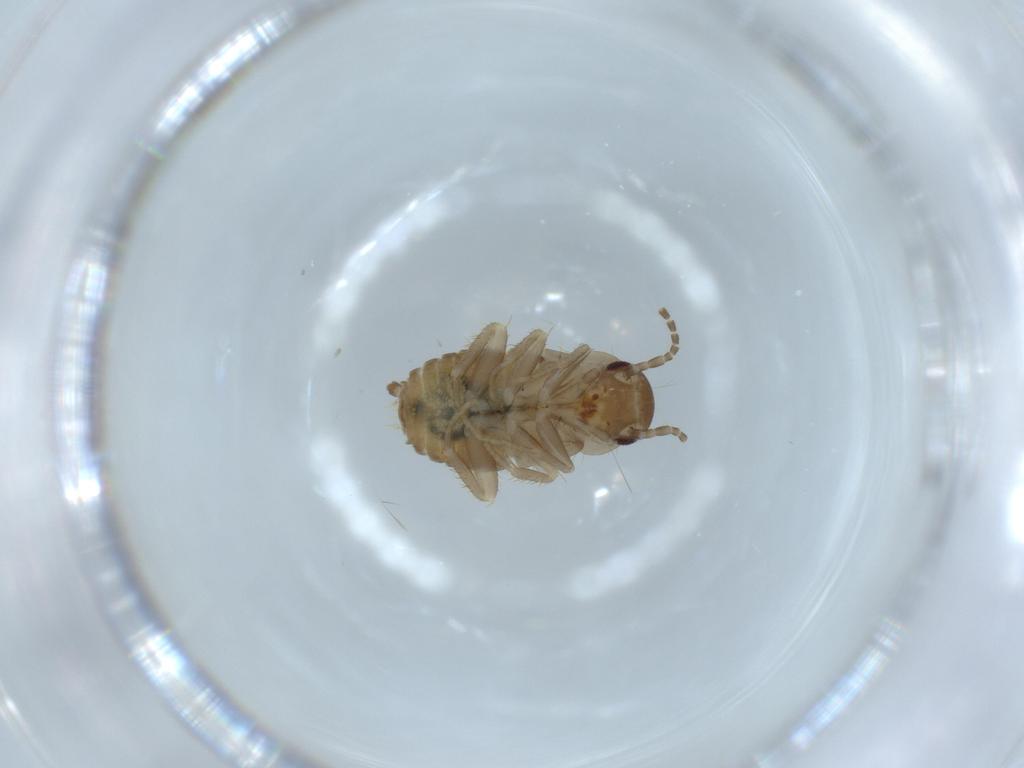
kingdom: Animalia
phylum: Arthropoda
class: Insecta
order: Blattodea
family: Ectobiidae
